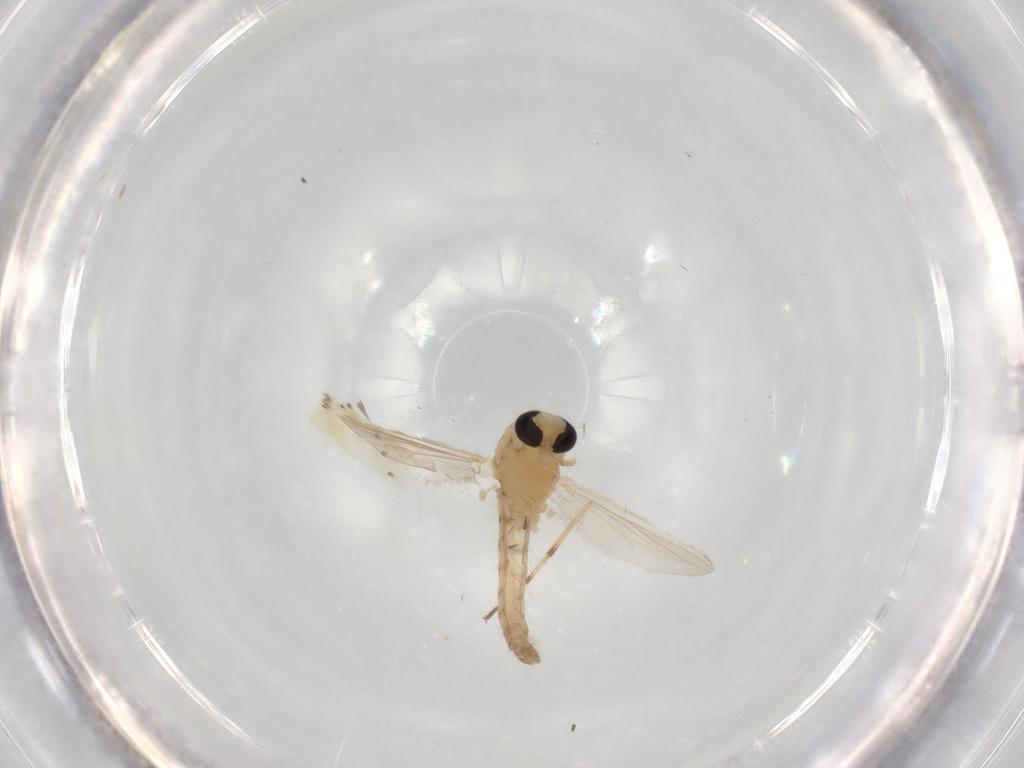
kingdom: Animalia
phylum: Arthropoda
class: Insecta
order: Diptera
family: Chironomidae
